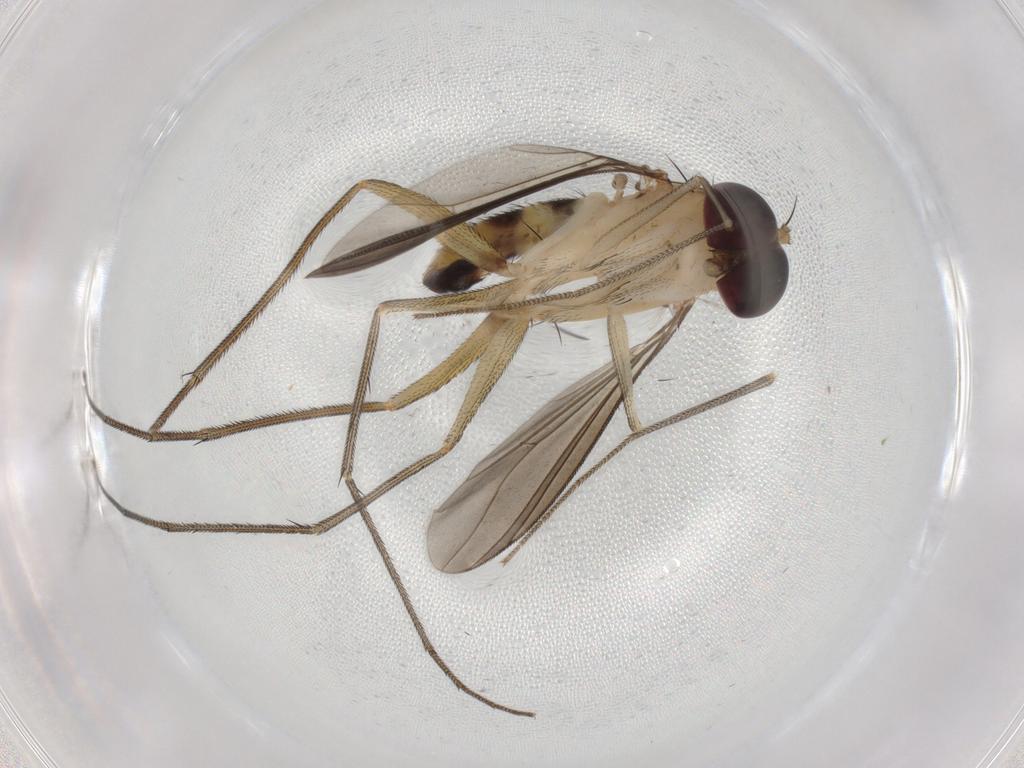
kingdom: Animalia
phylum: Arthropoda
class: Insecta
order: Diptera
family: Dolichopodidae
